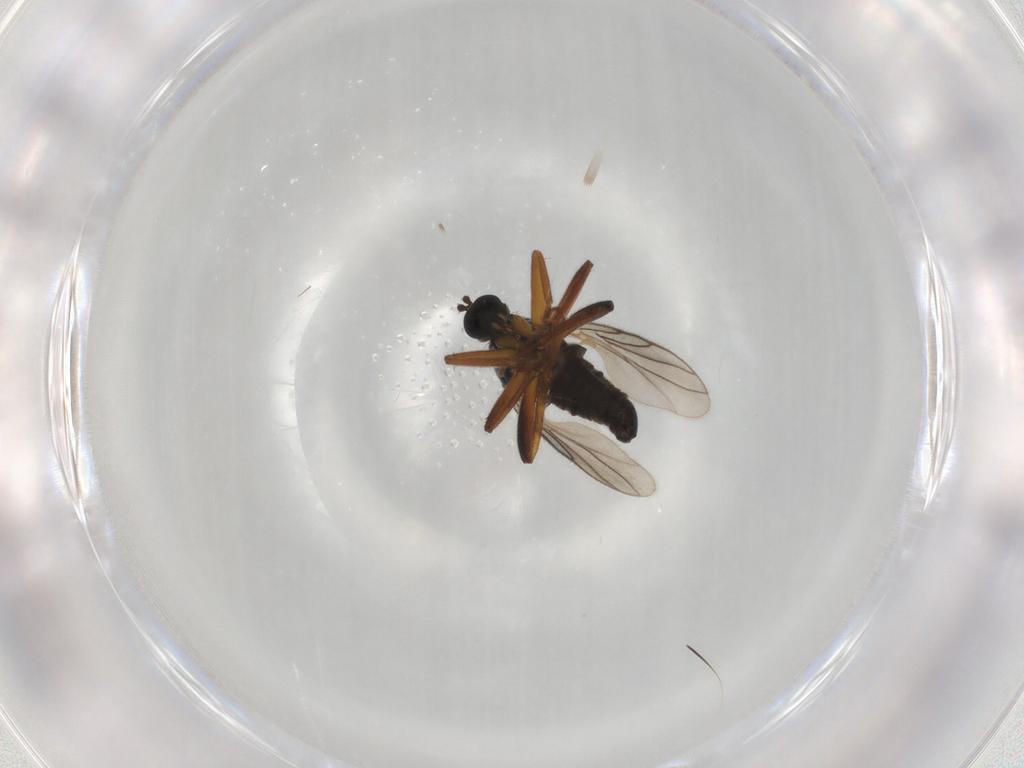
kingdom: Animalia
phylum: Arthropoda
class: Insecta
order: Diptera
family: Hybotidae
